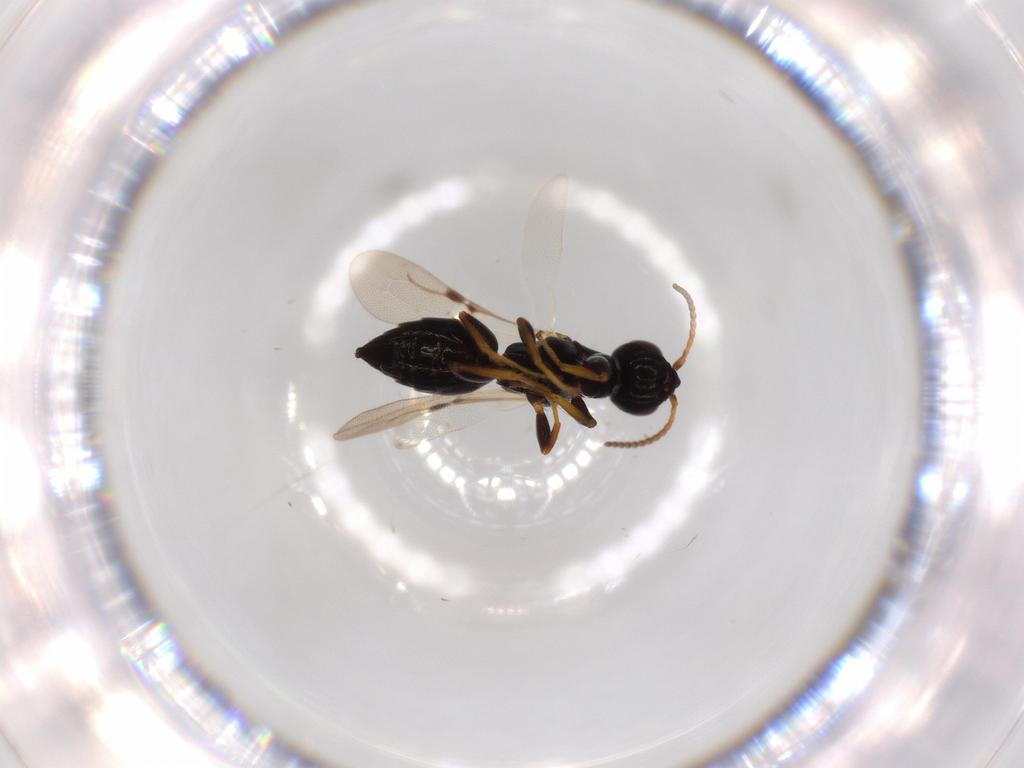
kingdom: Animalia
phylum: Arthropoda
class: Insecta
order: Hymenoptera
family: Bethylidae
